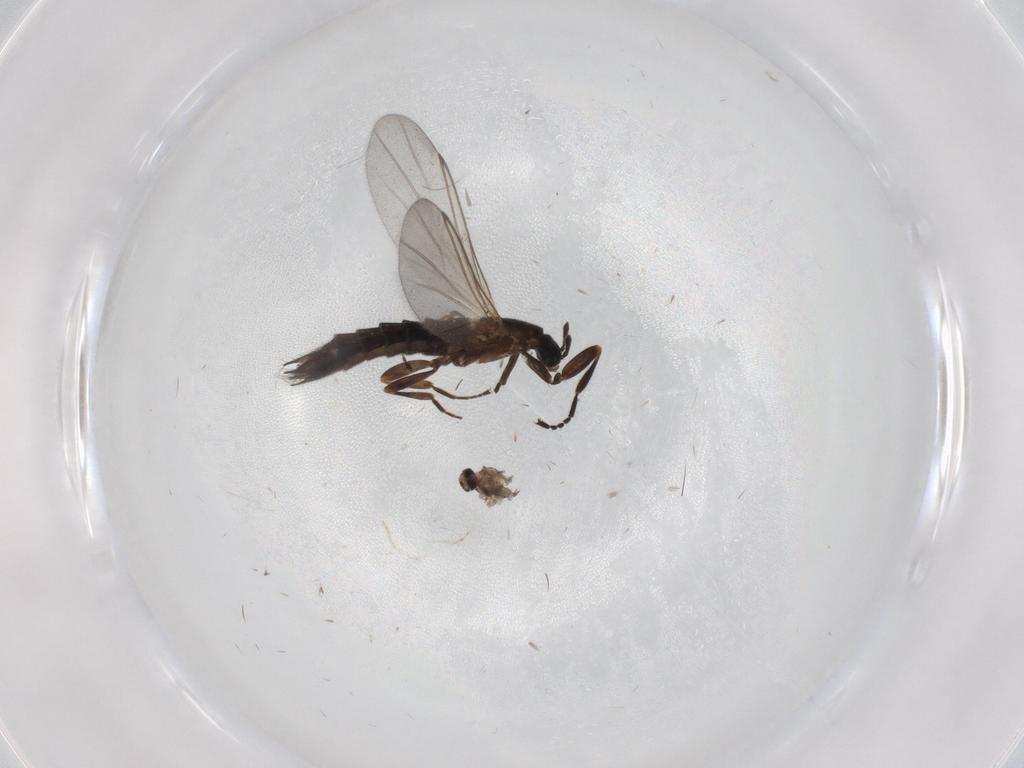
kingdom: Animalia
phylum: Arthropoda
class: Insecta
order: Diptera
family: Scatopsidae
